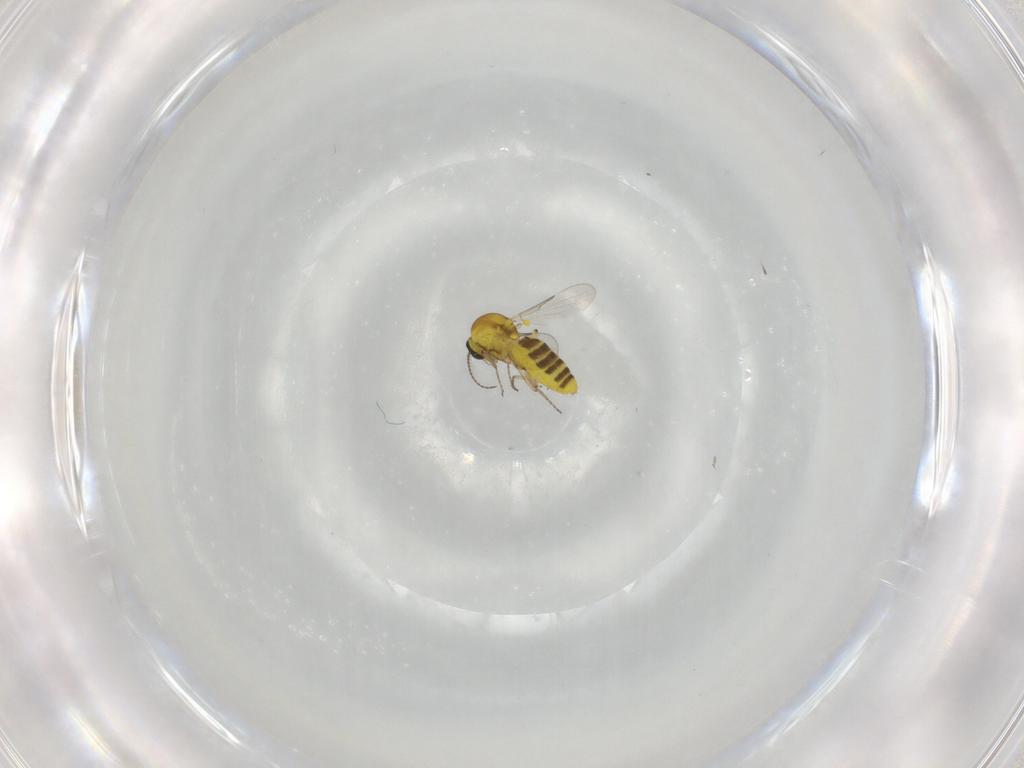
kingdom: Animalia
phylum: Arthropoda
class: Insecta
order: Diptera
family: Ceratopogonidae
